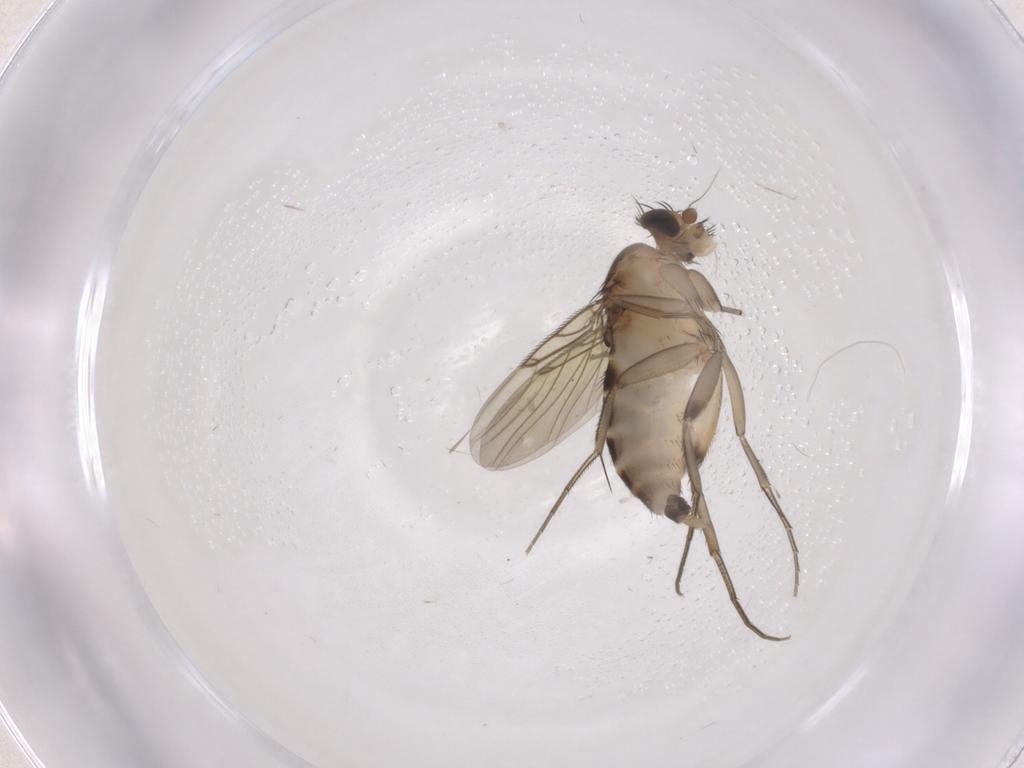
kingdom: Animalia
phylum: Arthropoda
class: Insecta
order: Diptera
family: Phoridae
